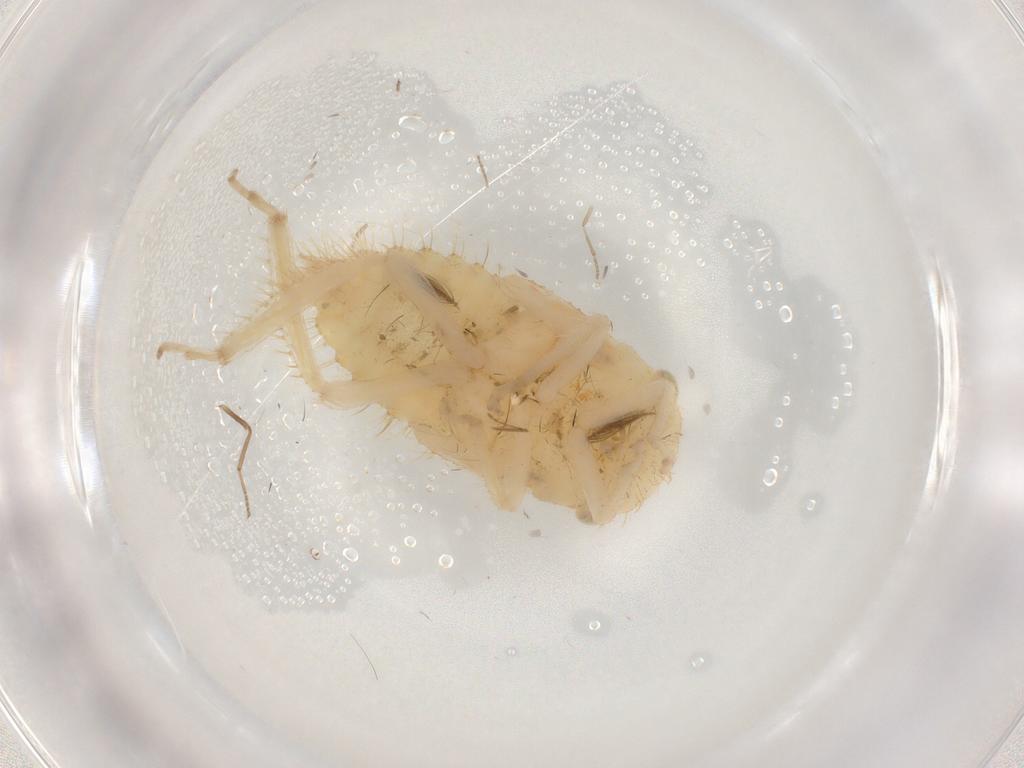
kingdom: Animalia
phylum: Arthropoda
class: Insecta
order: Hemiptera
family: Cicadellidae
